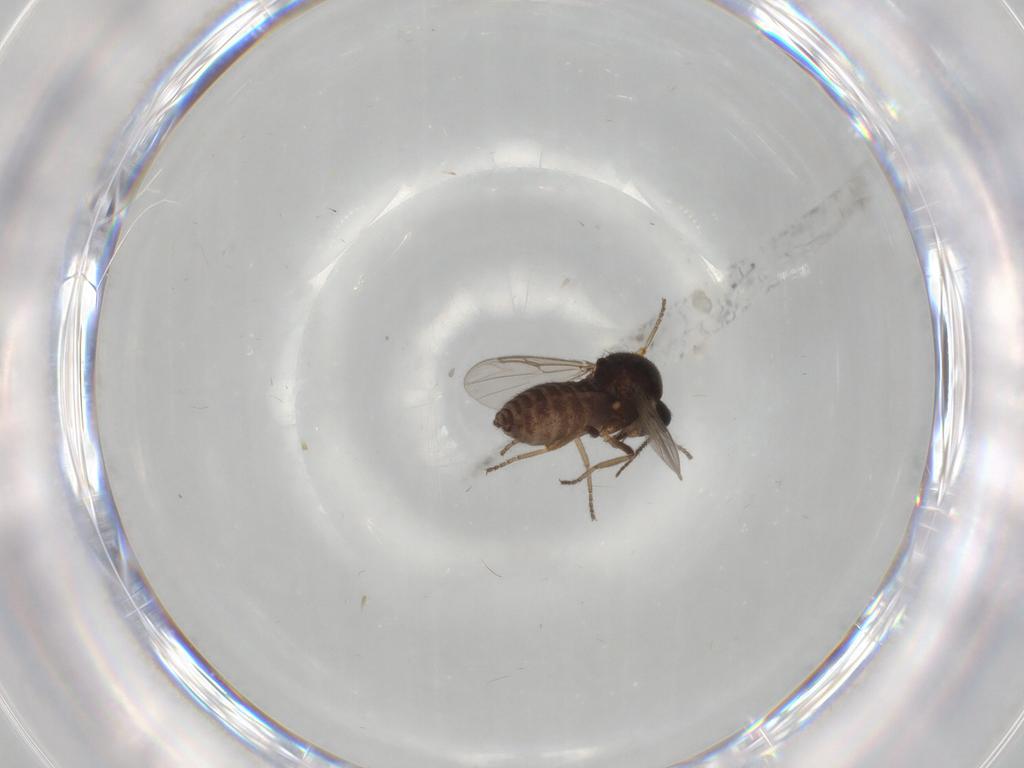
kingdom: Animalia
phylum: Arthropoda
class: Insecta
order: Diptera
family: Ceratopogonidae
